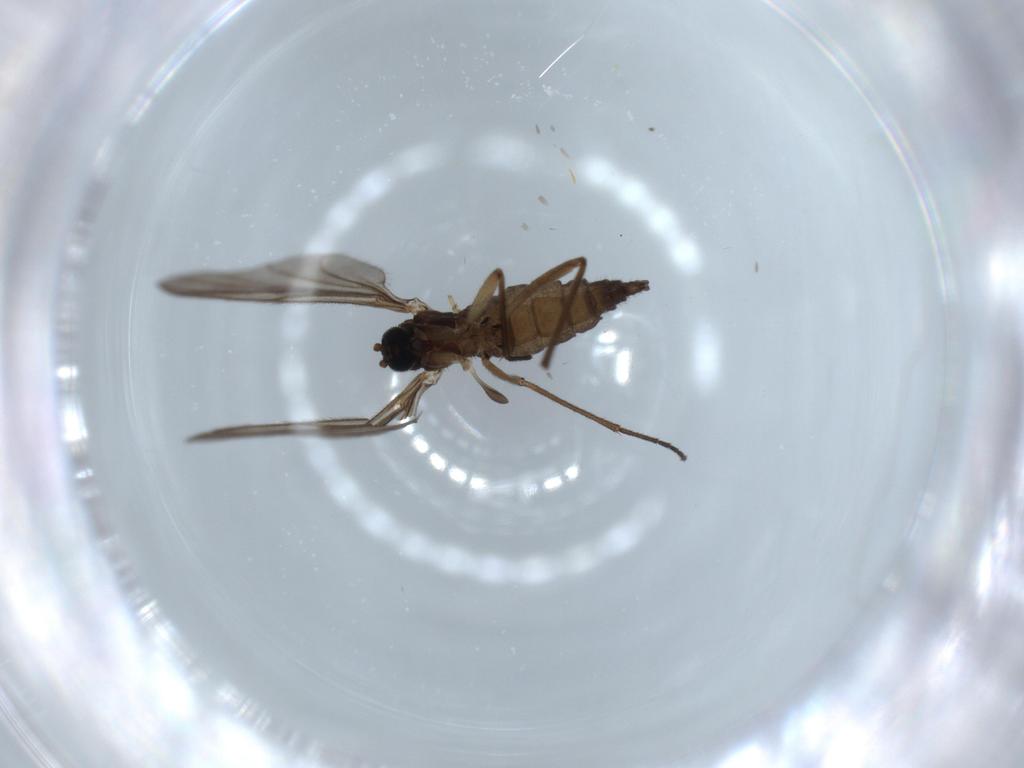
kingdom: Animalia
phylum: Arthropoda
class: Insecta
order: Diptera
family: Sciaridae
